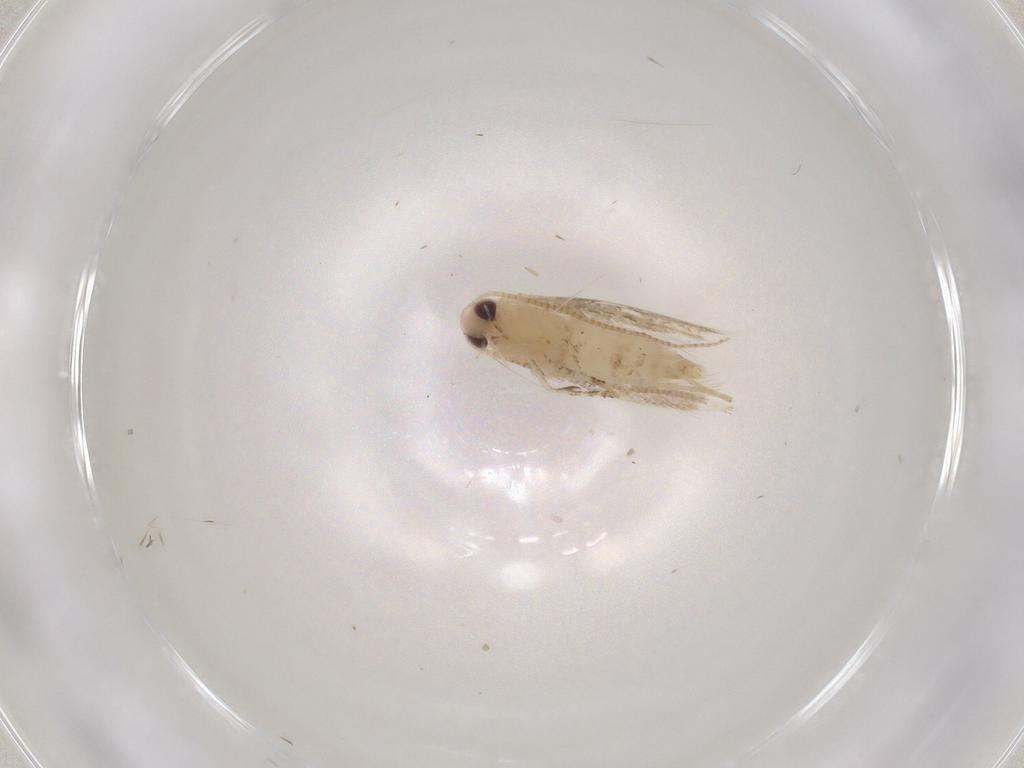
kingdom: Animalia
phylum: Arthropoda
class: Insecta
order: Lepidoptera
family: Gracillariidae
